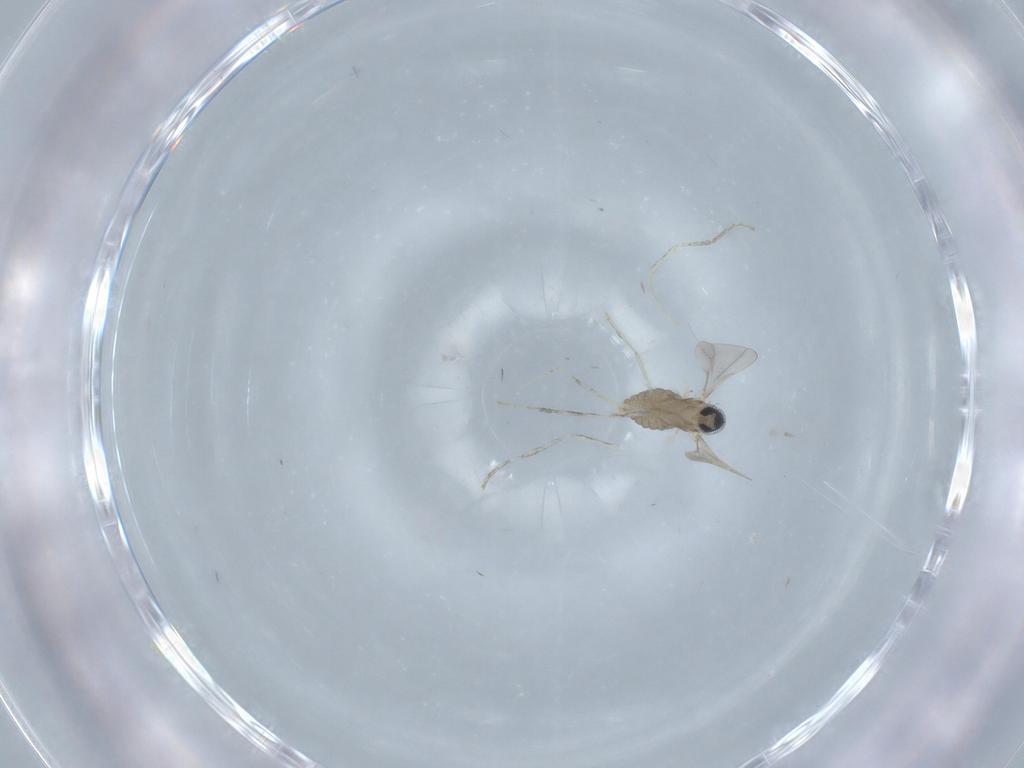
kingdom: Animalia
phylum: Arthropoda
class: Insecta
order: Diptera
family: Cecidomyiidae
